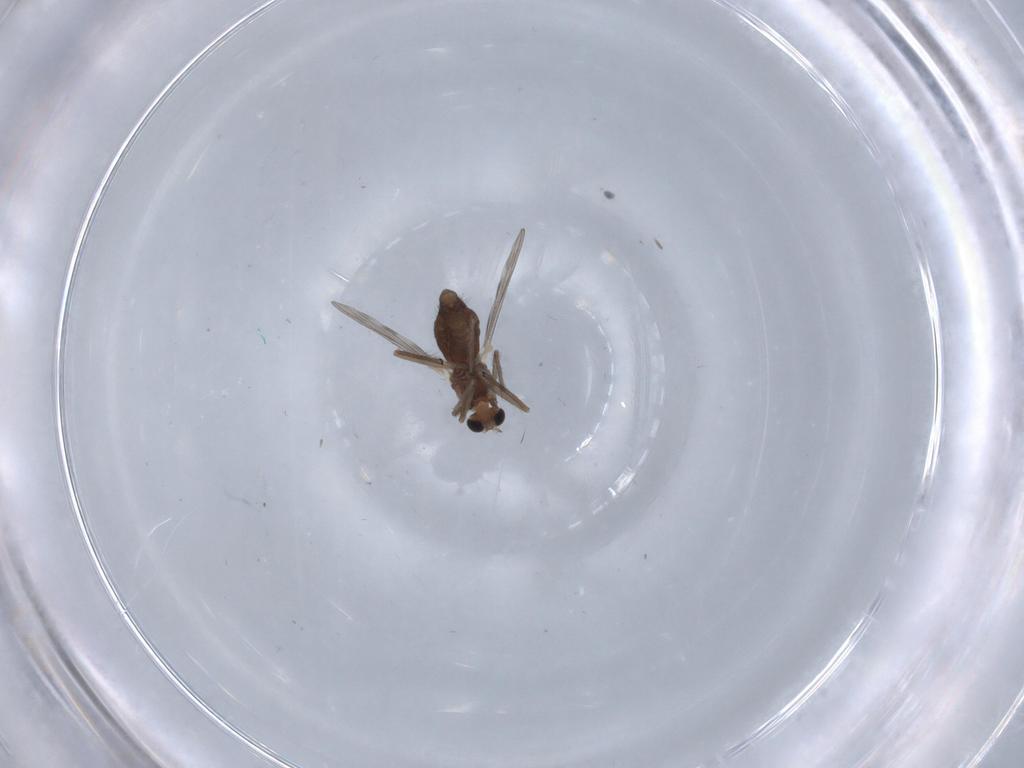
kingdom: Animalia
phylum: Arthropoda
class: Insecta
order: Diptera
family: Chironomidae
